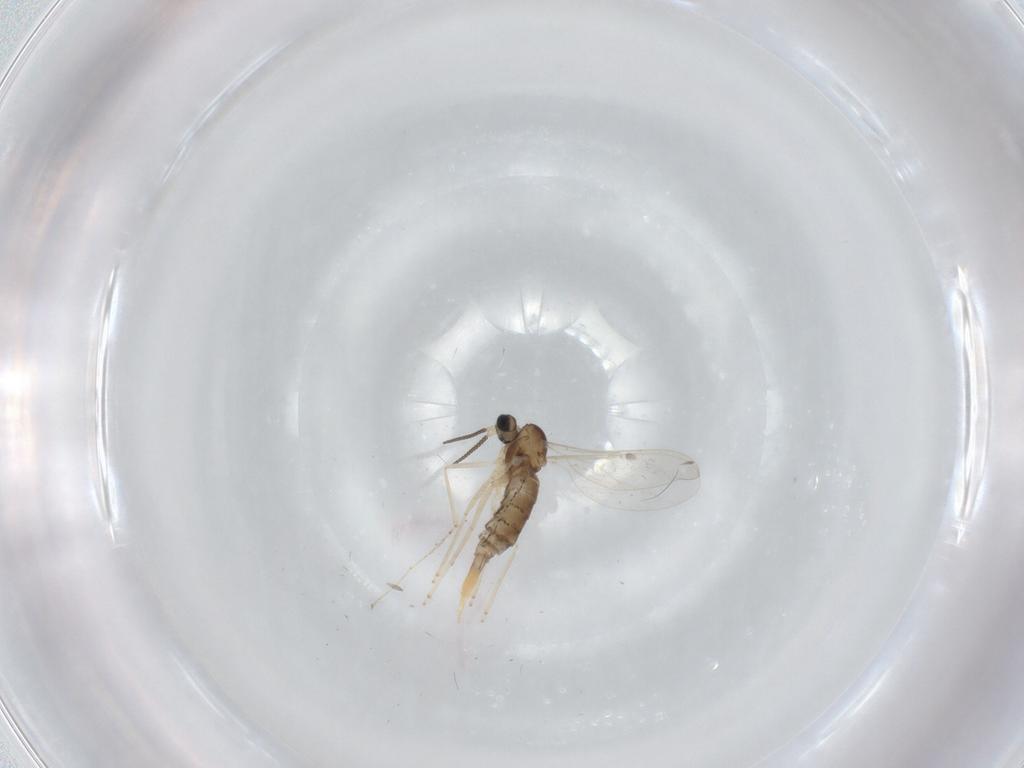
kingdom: Animalia
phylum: Arthropoda
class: Insecta
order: Diptera
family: Cecidomyiidae
